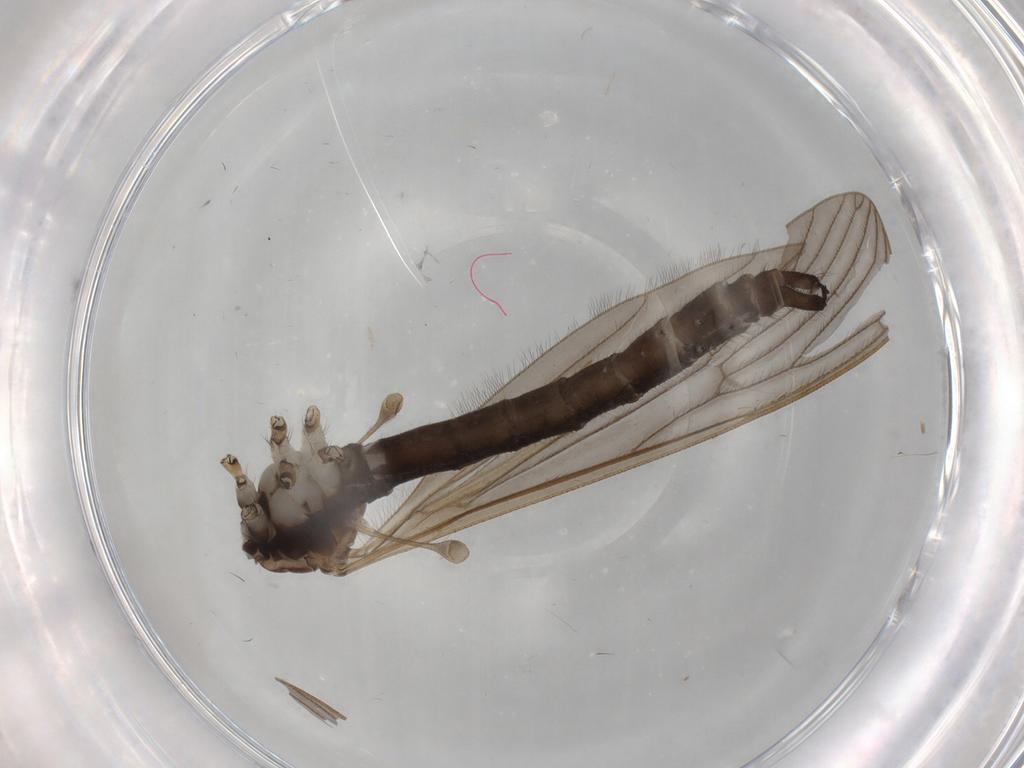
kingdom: Animalia
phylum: Arthropoda
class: Insecta
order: Diptera
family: Limoniidae
